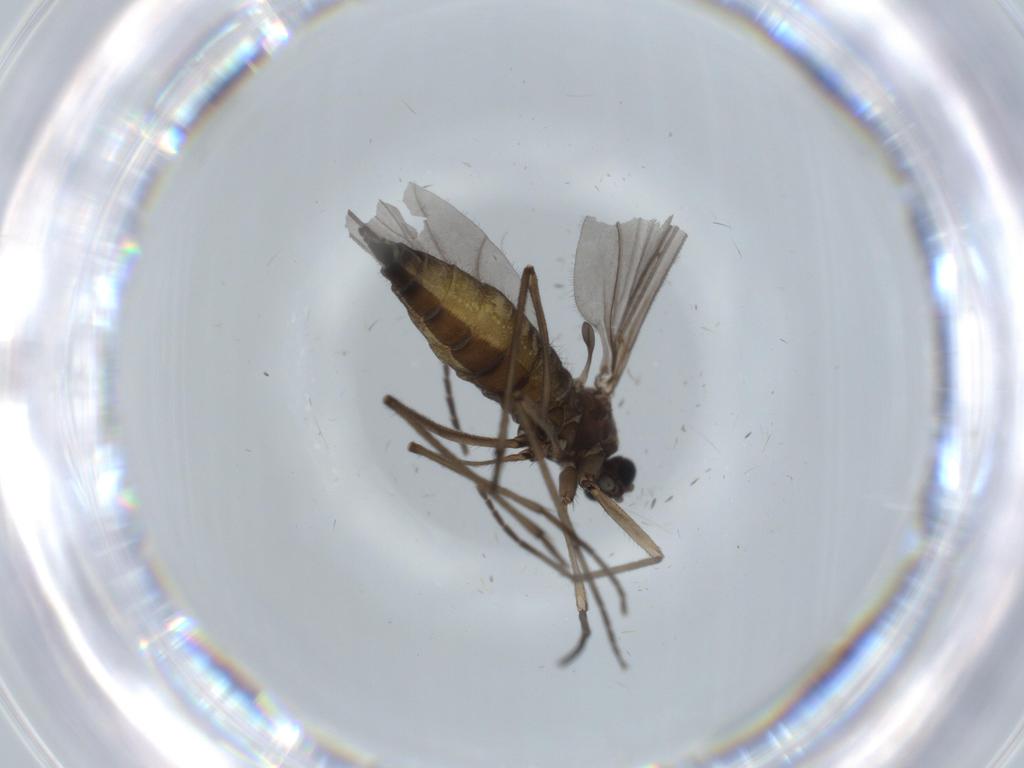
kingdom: Animalia
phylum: Arthropoda
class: Insecta
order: Diptera
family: Sciaridae
